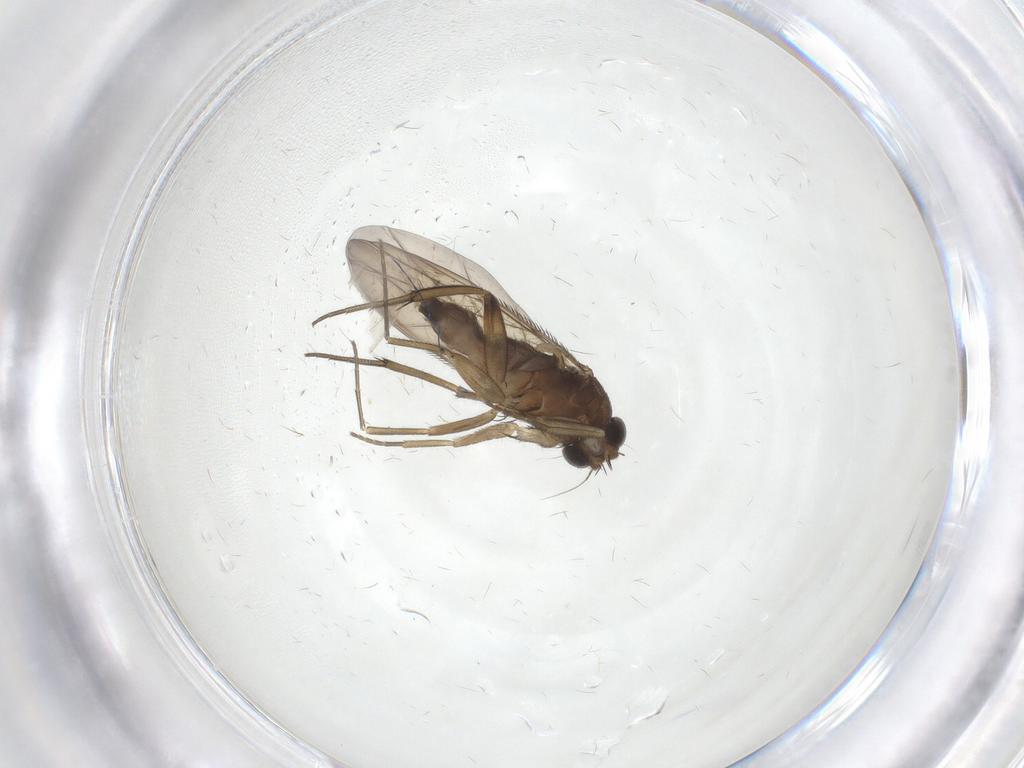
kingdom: Animalia
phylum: Arthropoda
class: Insecta
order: Diptera
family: Phoridae
